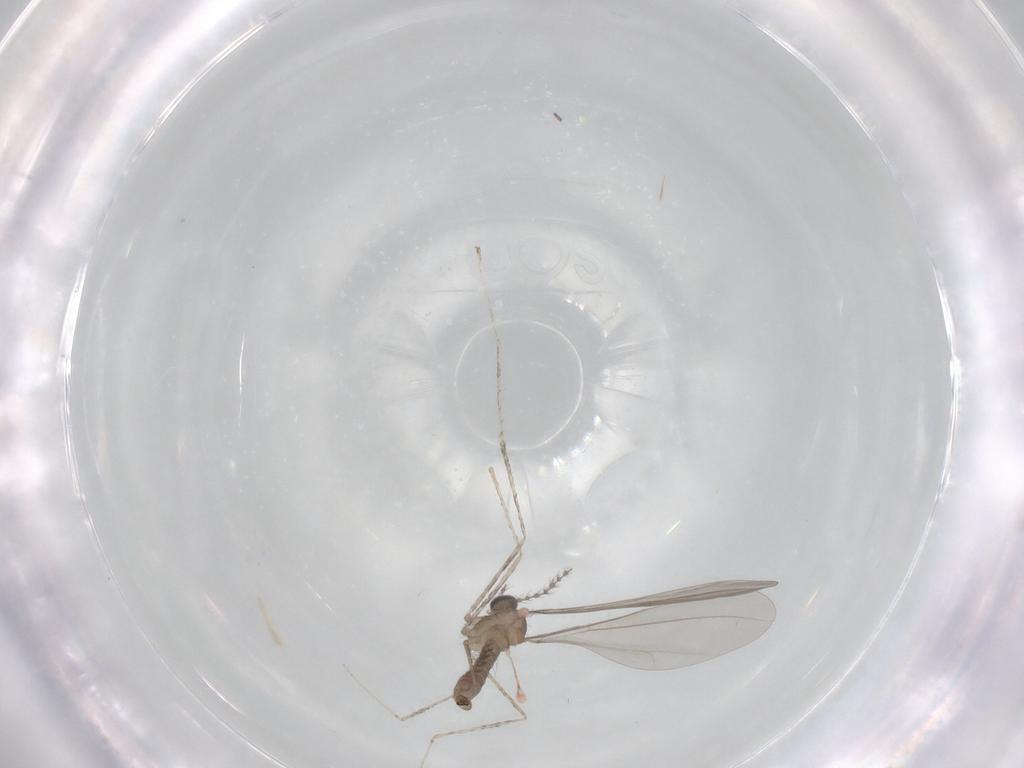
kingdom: Animalia
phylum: Arthropoda
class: Insecta
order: Diptera
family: Cecidomyiidae
